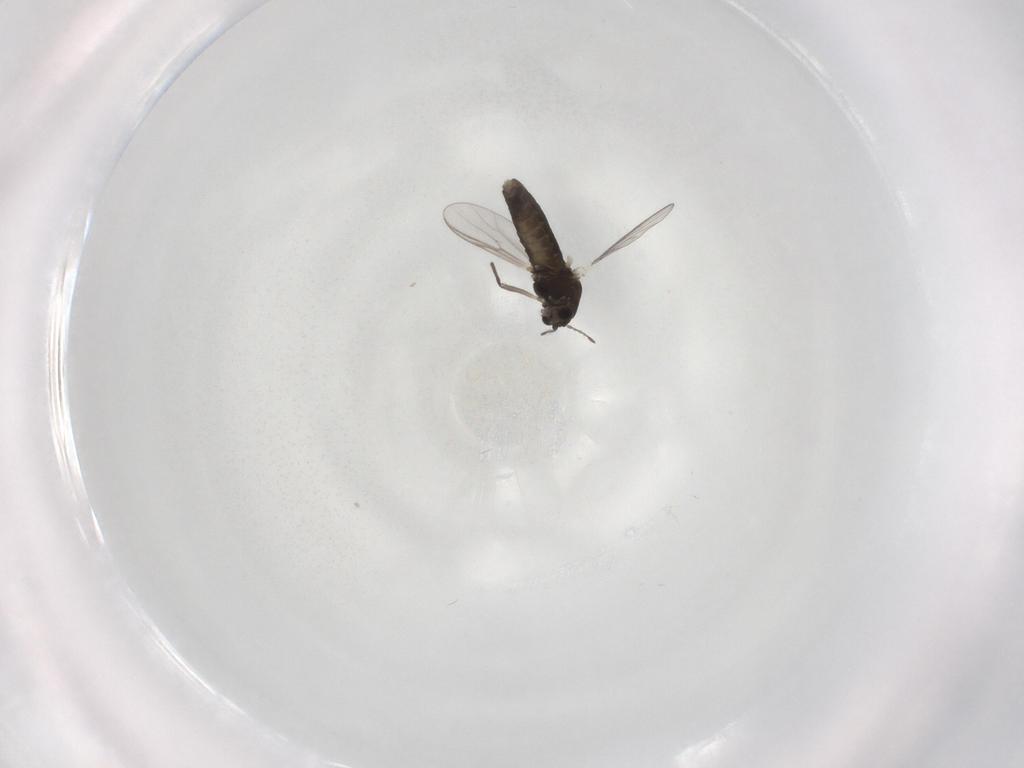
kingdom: Animalia
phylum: Arthropoda
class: Insecta
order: Diptera
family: Chironomidae
